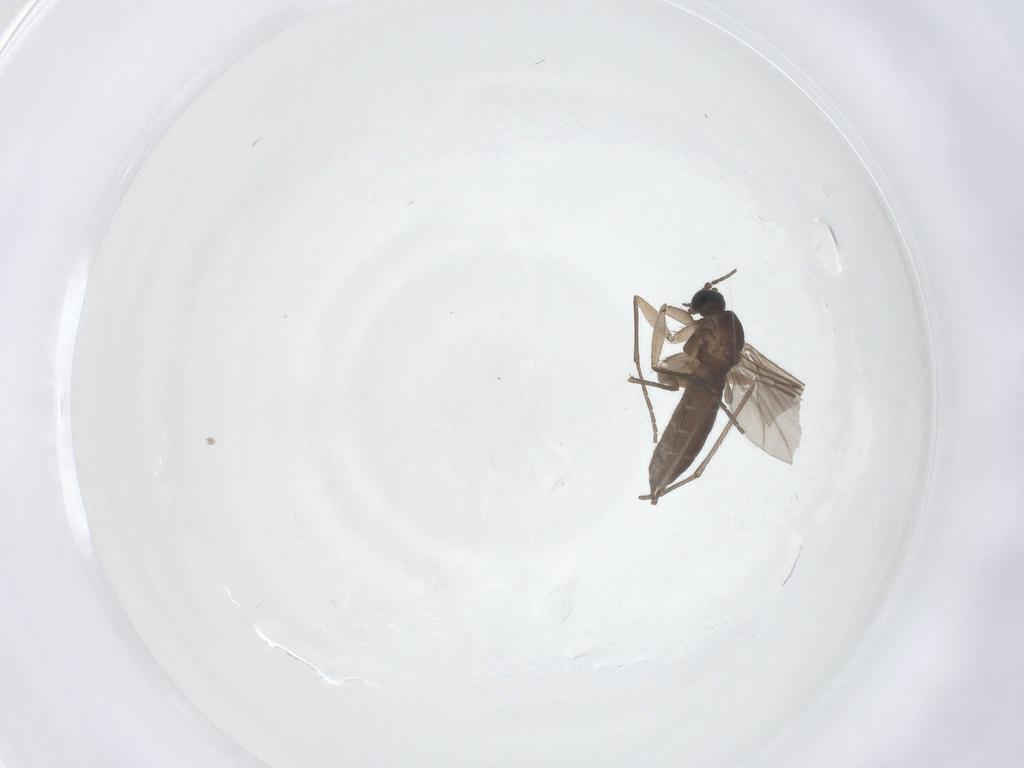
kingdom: Animalia
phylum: Arthropoda
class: Insecta
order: Diptera
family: Sciaridae
